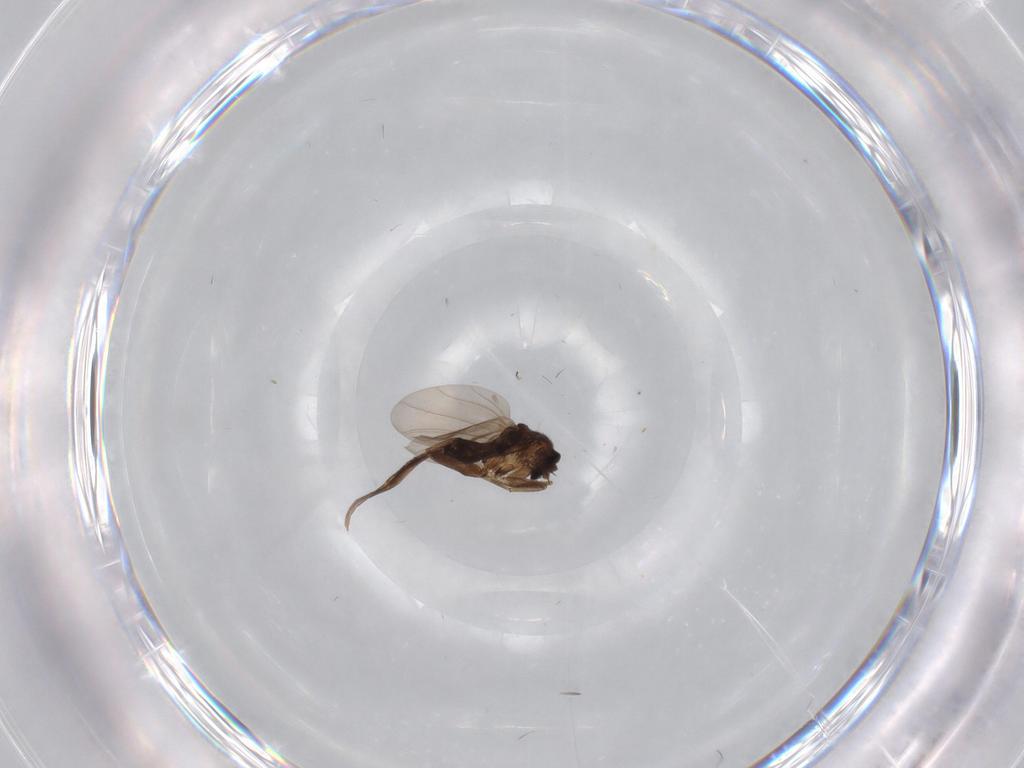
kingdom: Animalia
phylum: Arthropoda
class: Insecta
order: Diptera
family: Phoridae
